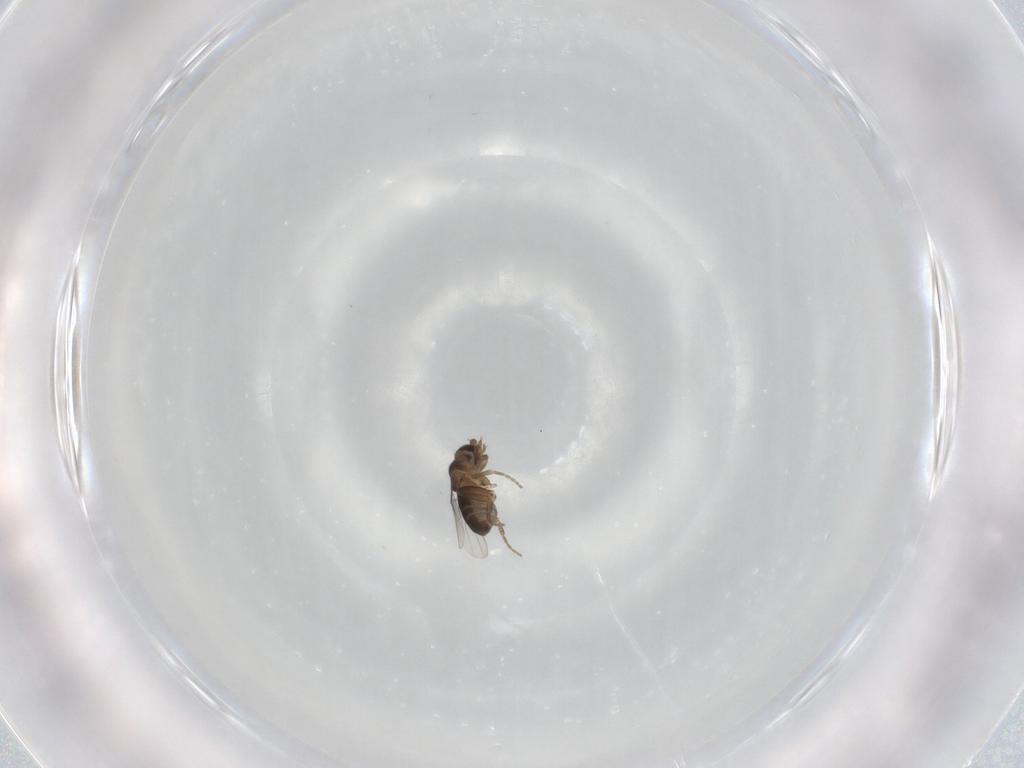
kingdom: Animalia
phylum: Arthropoda
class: Insecta
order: Diptera
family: Phoridae
